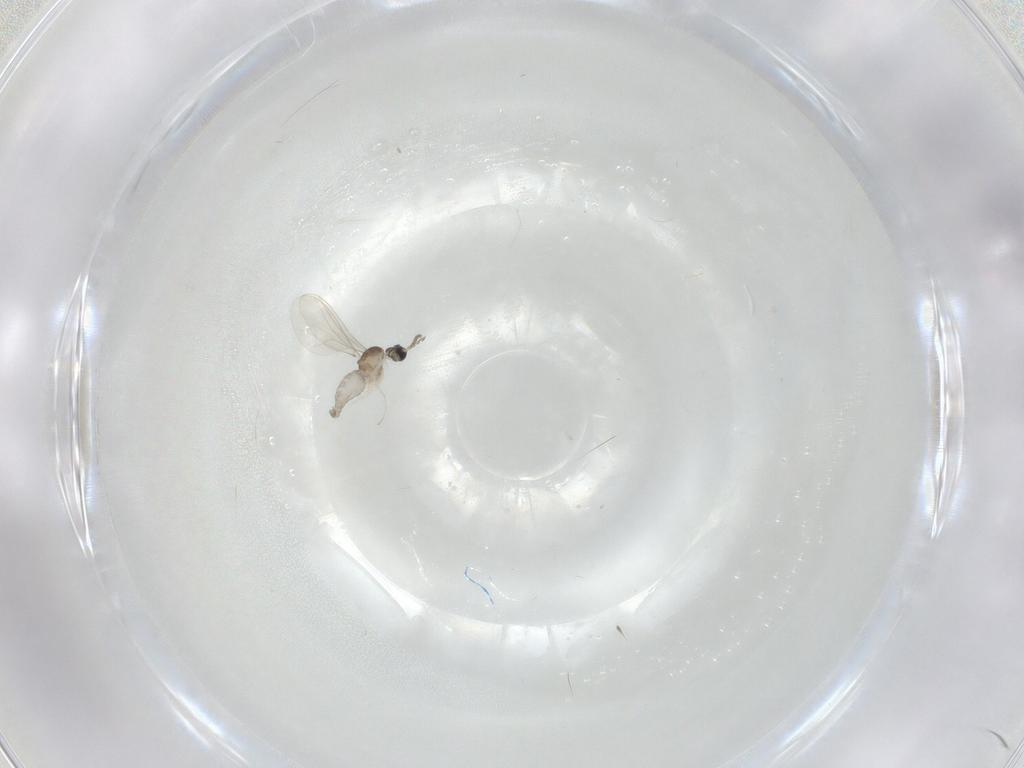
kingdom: Animalia
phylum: Arthropoda
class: Insecta
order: Diptera
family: Cecidomyiidae
